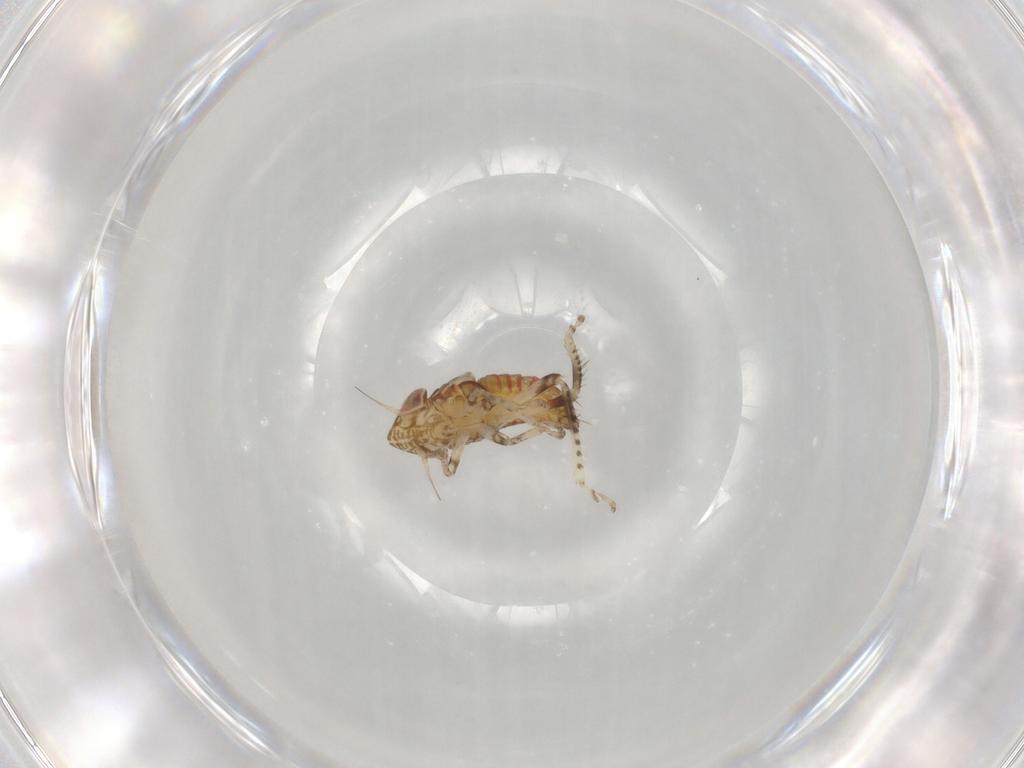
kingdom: Animalia
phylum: Arthropoda
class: Insecta
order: Hemiptera
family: Cicadellidae
